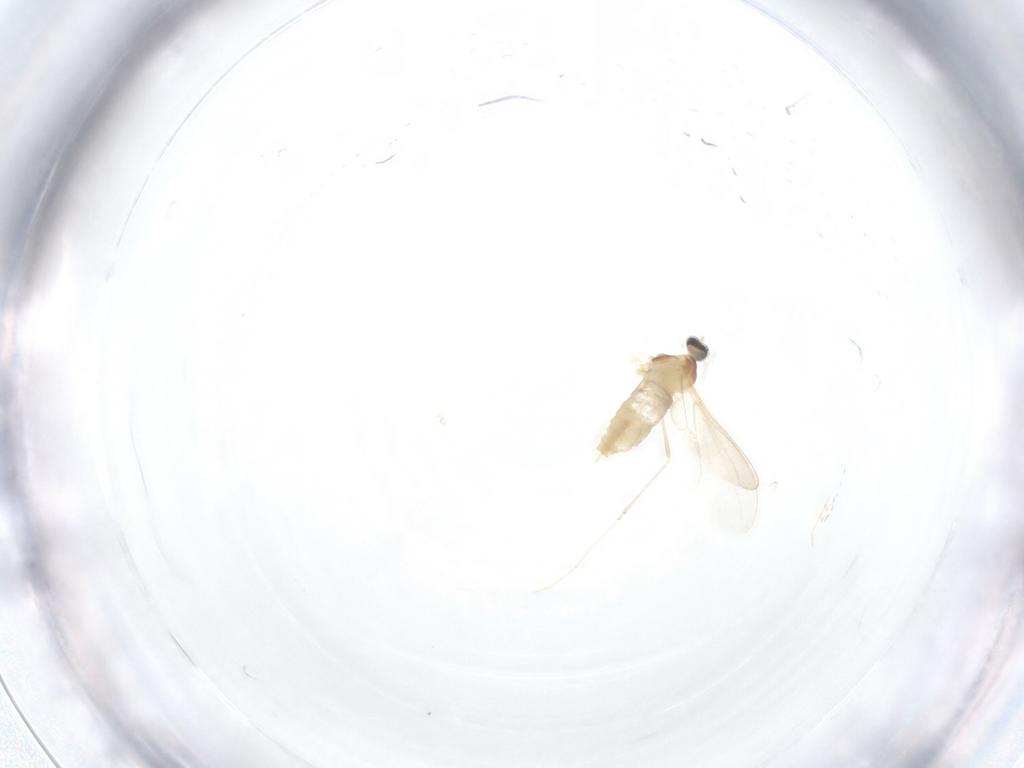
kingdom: Animalia
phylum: Arthropoda
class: Insecta
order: Diptera
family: Cecidomyiidae
